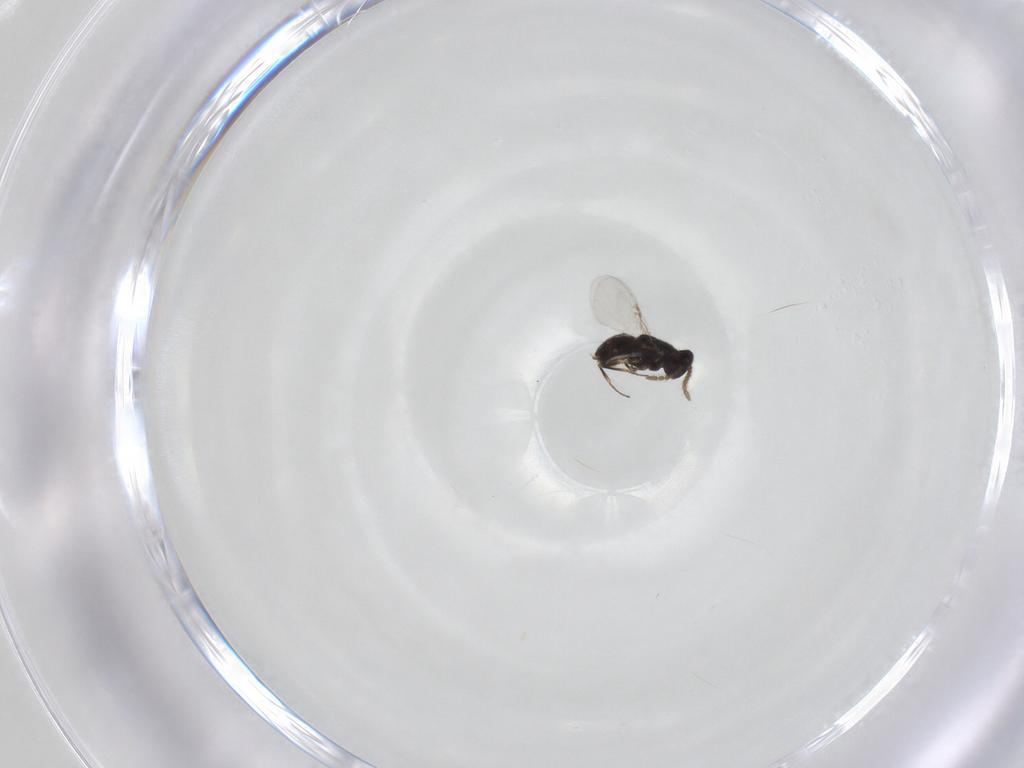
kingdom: Animalia
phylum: Arthropoda
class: Insecta
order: Hymenoptera
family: Encyrtidae
